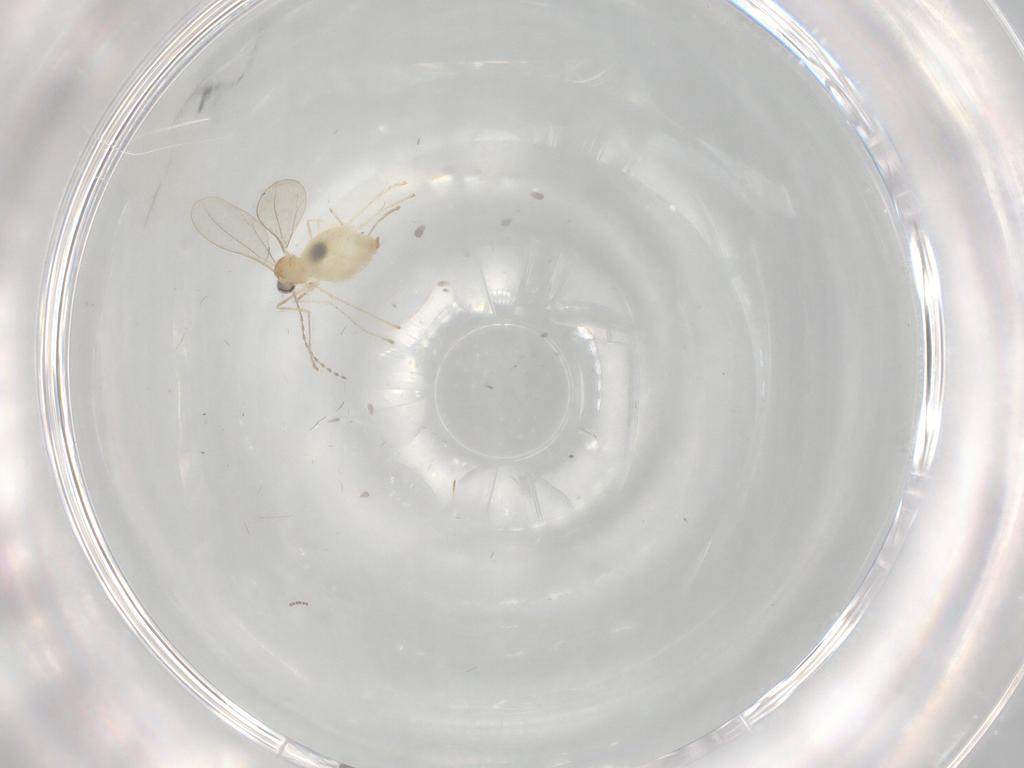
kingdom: Animalia
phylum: Arthropoda
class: Insecta
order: Diptera
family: Cecidomyiidae
